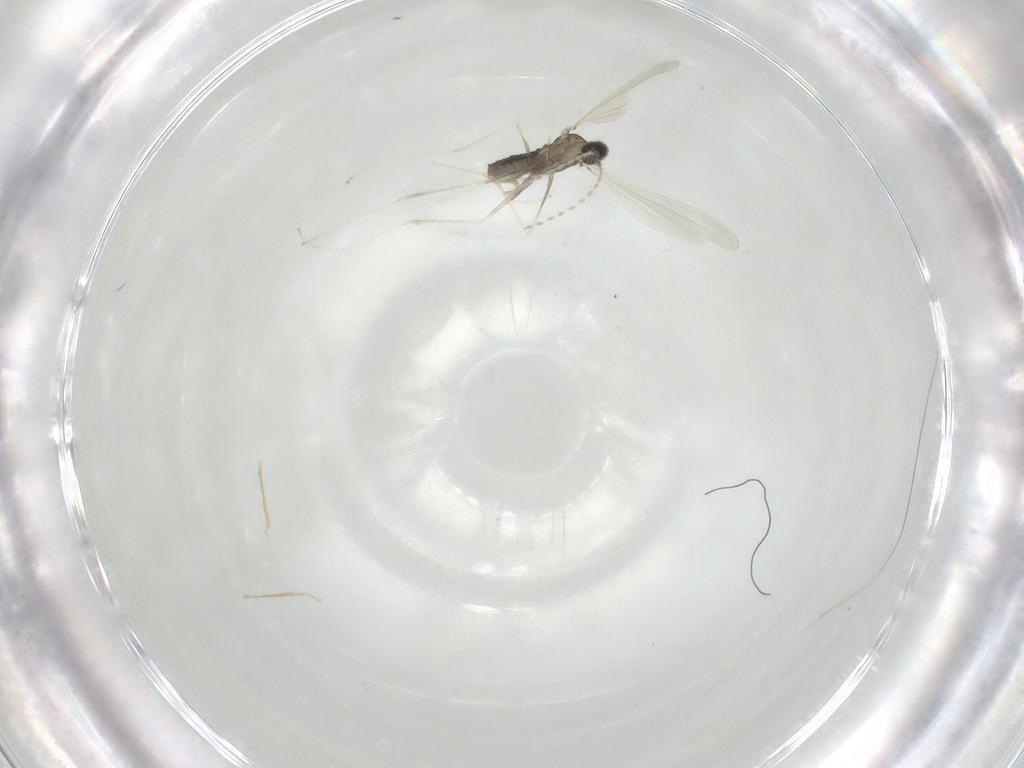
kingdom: Animalia
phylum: Arthropoda
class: Insecta
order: Diptera
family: Cecidomyiidae
